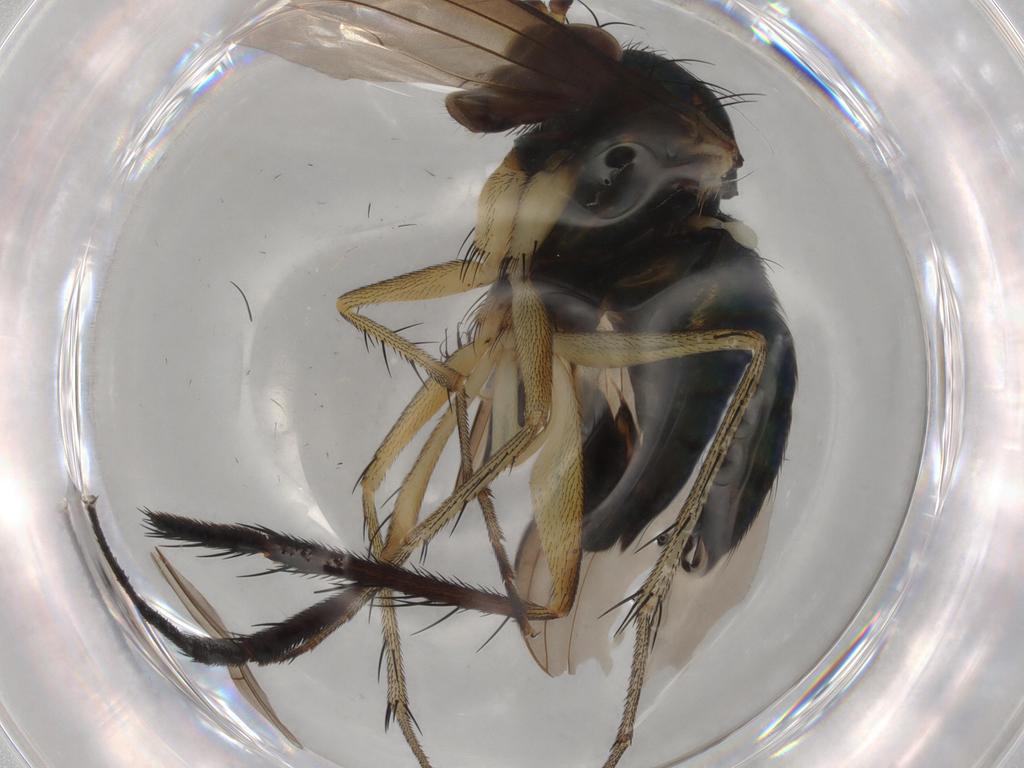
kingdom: Animalia
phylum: Arthropoda
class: Insecta
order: Diptera
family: Dolichopodidae
